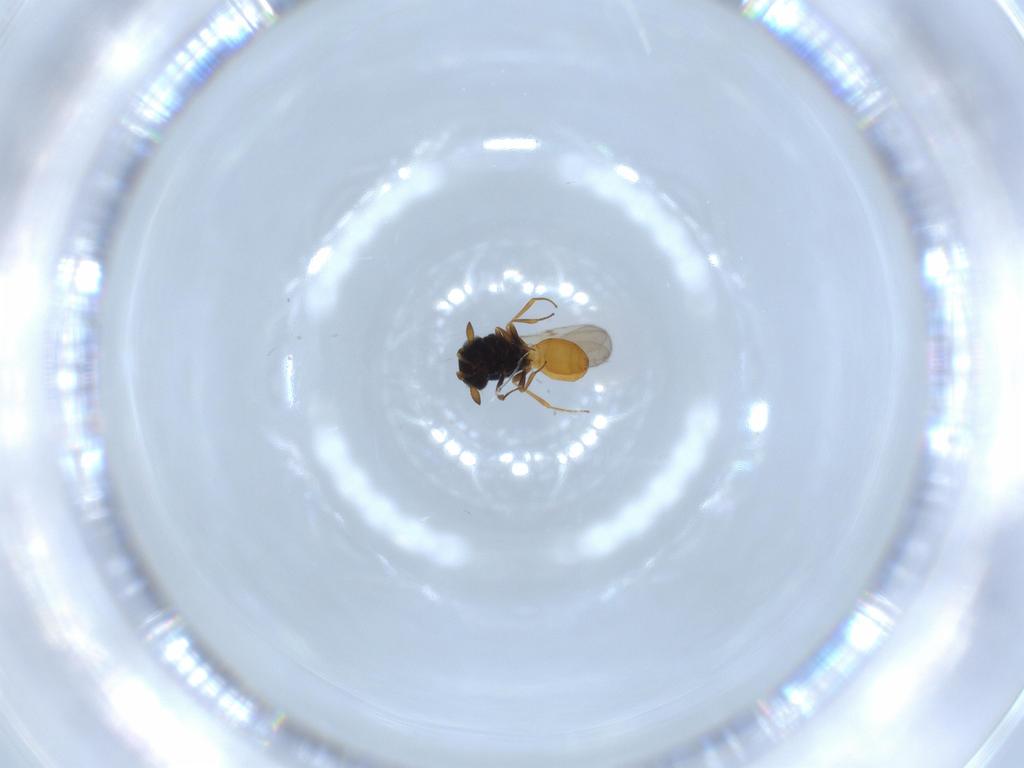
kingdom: Animalia
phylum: Arthropoda
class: Insecta
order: Hymenoptera
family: Scelionidae
